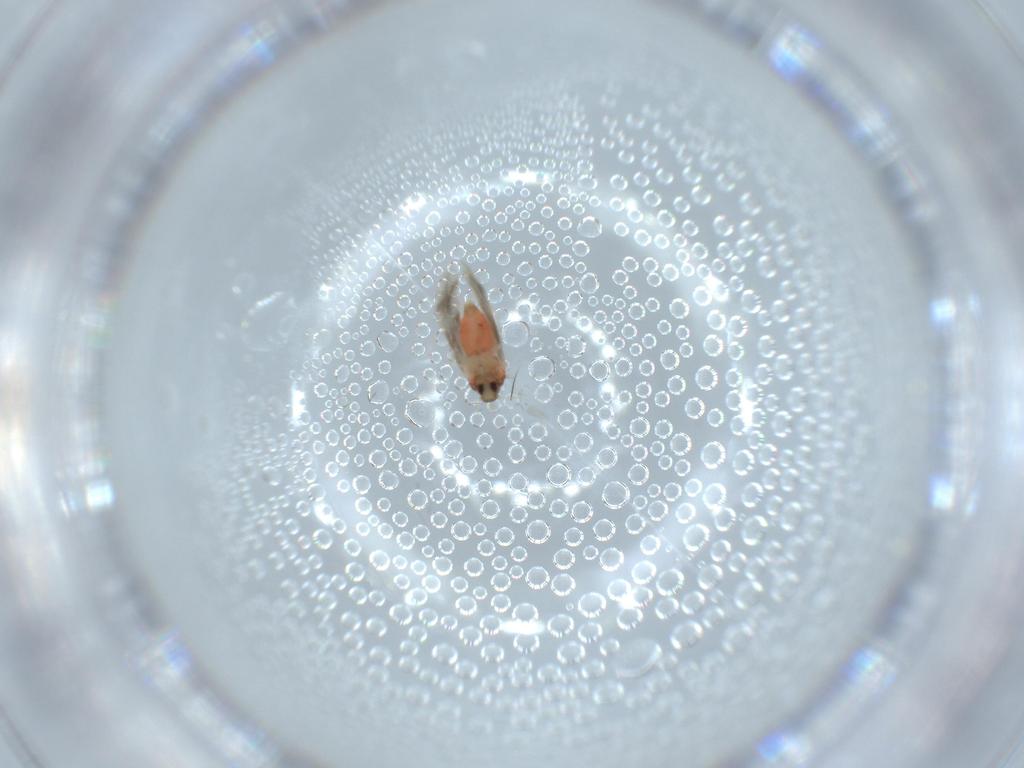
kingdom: Animalia
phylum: Arthropoda
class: Insecta
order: Hemiptera
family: Aleyrodidae
